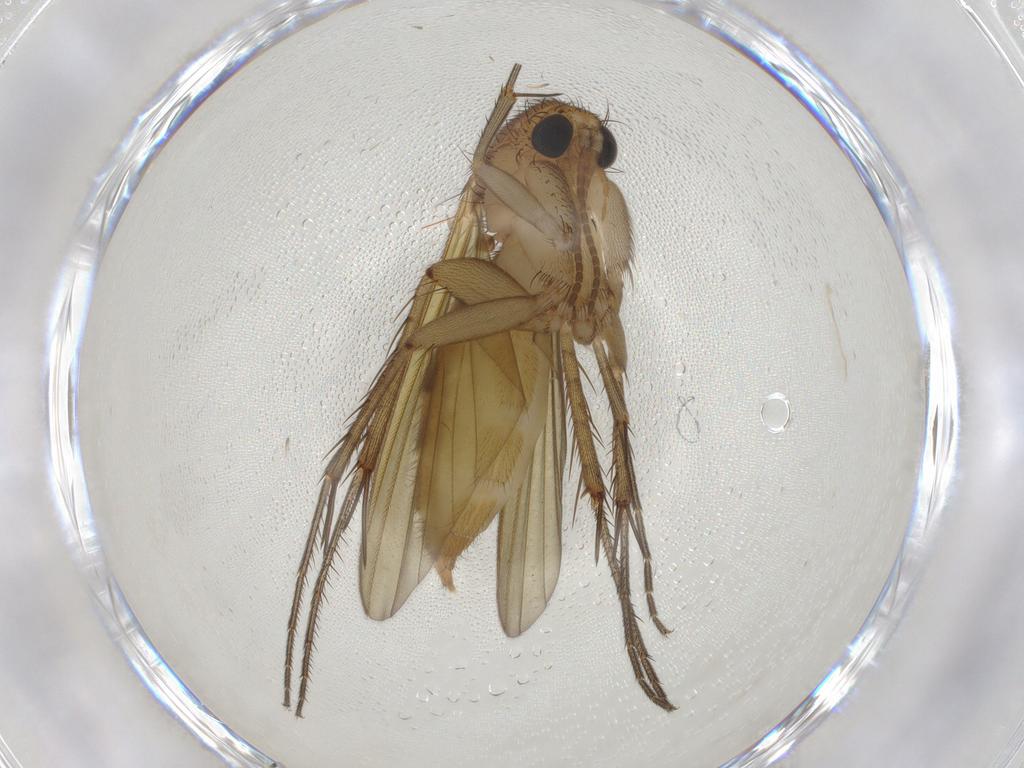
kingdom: Animalia
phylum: Arthropoda
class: Insecta
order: Diptera
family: Mycetophilidae
